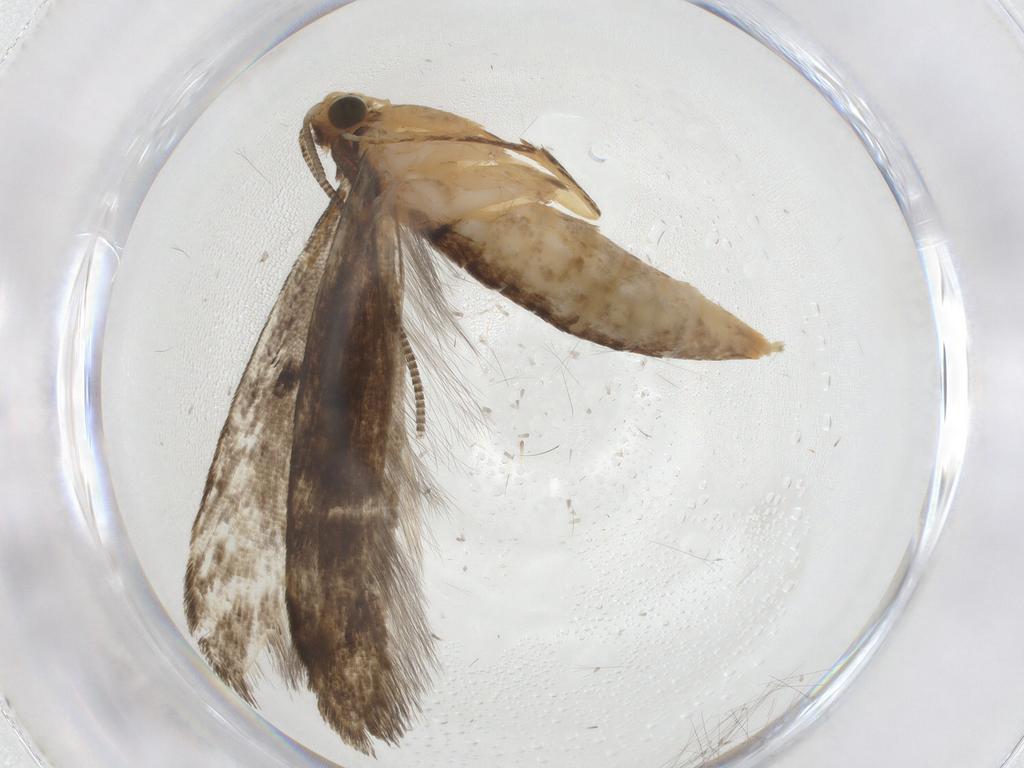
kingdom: Animalia
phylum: Arthropoda
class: Insecta
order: Lepidoptera
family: Tineidae
